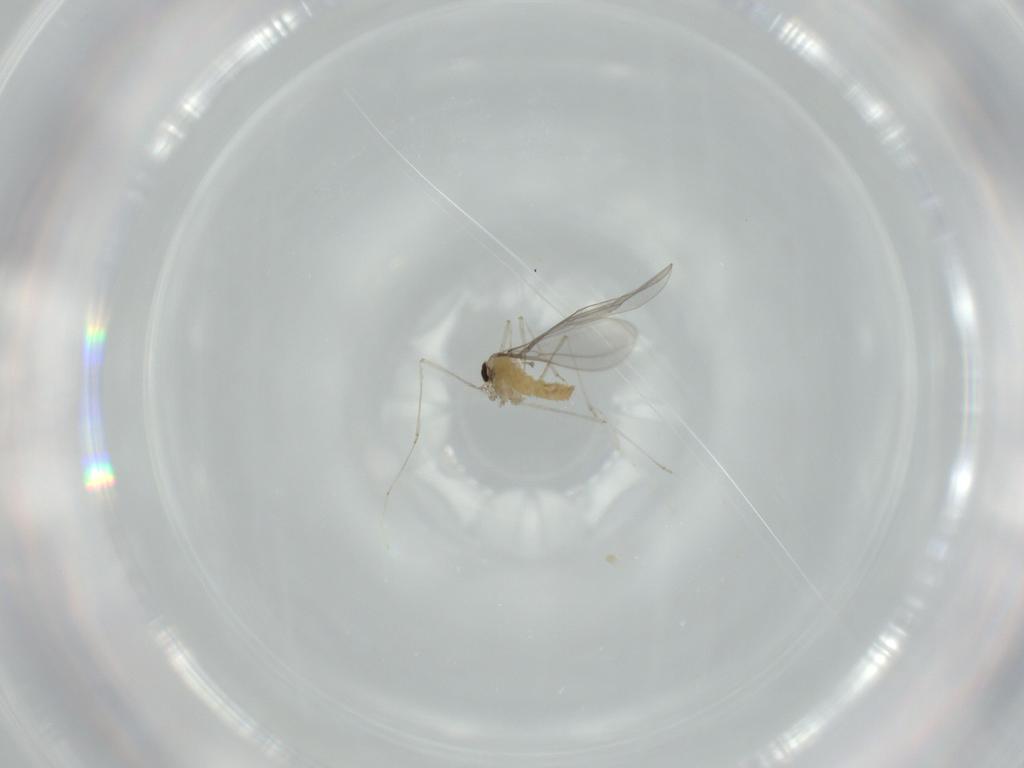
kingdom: Animalia
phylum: Arthropoda
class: Insecta
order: Diptera
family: Cecidomyiidae
